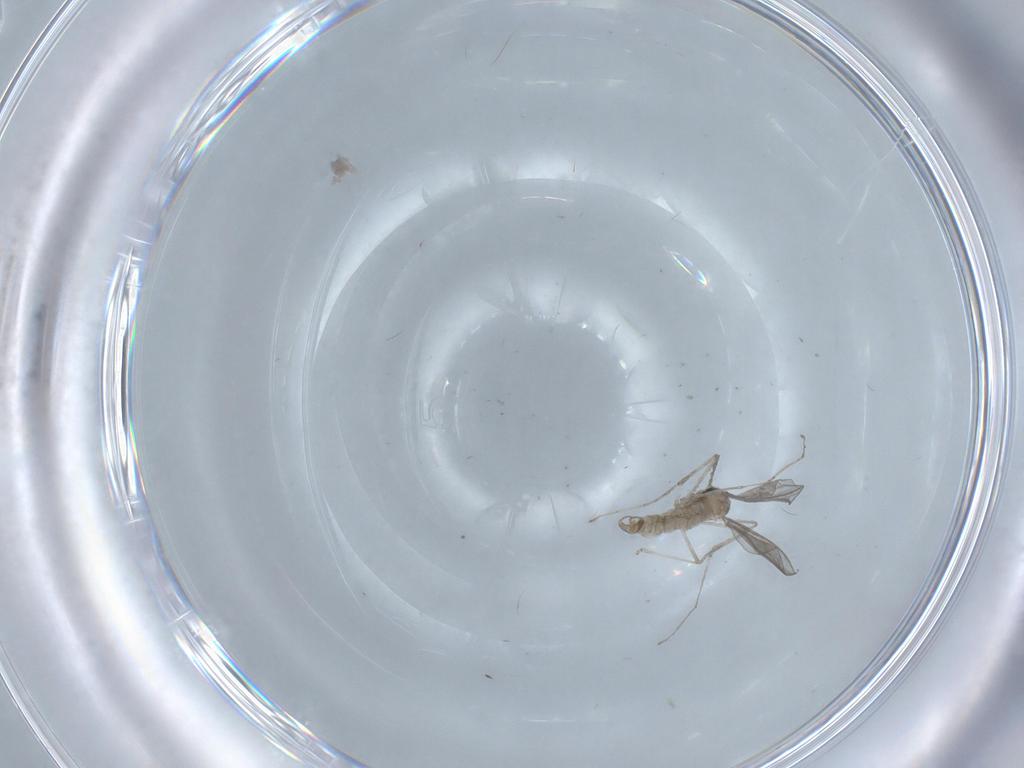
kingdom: Animalia
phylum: Arthropoda
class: Insecta
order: Diptera
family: Cecidomyiidae
